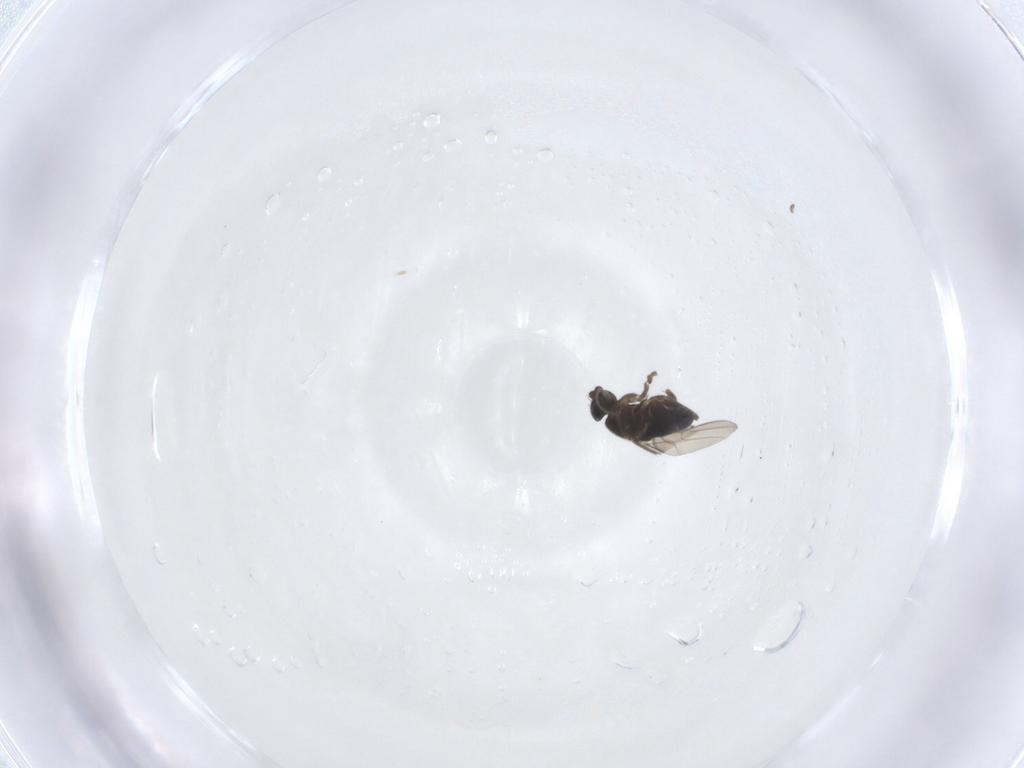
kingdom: Animalia
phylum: Arthropoda
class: Insecta
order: Diptera
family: Phoridae
